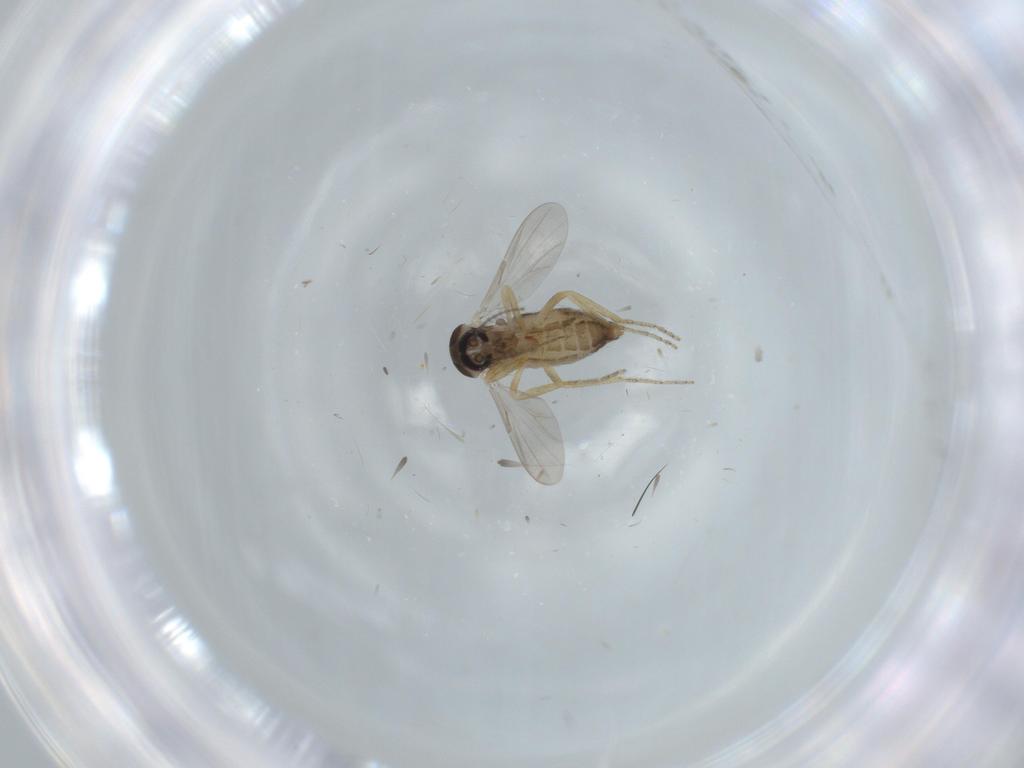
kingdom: Animalia
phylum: Arthropoda
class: Insecta
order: Diptera
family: Ceratopogonidae
